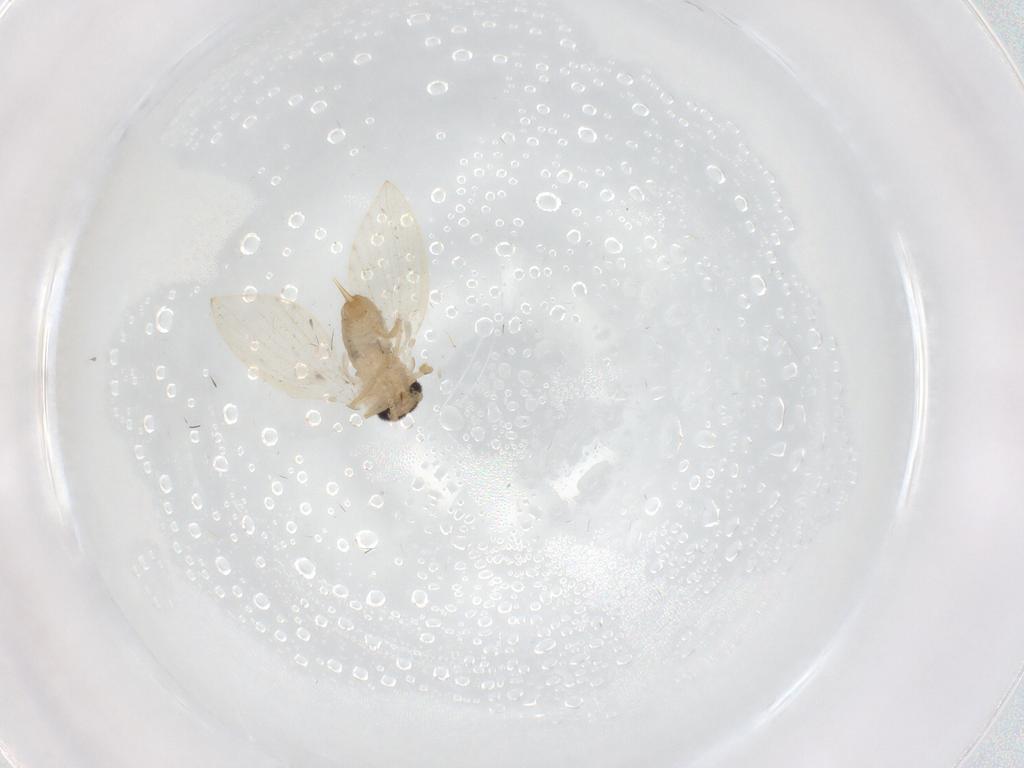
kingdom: Animalia
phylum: Arthropoda
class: Insecta
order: Diptera
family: Psychodidae
